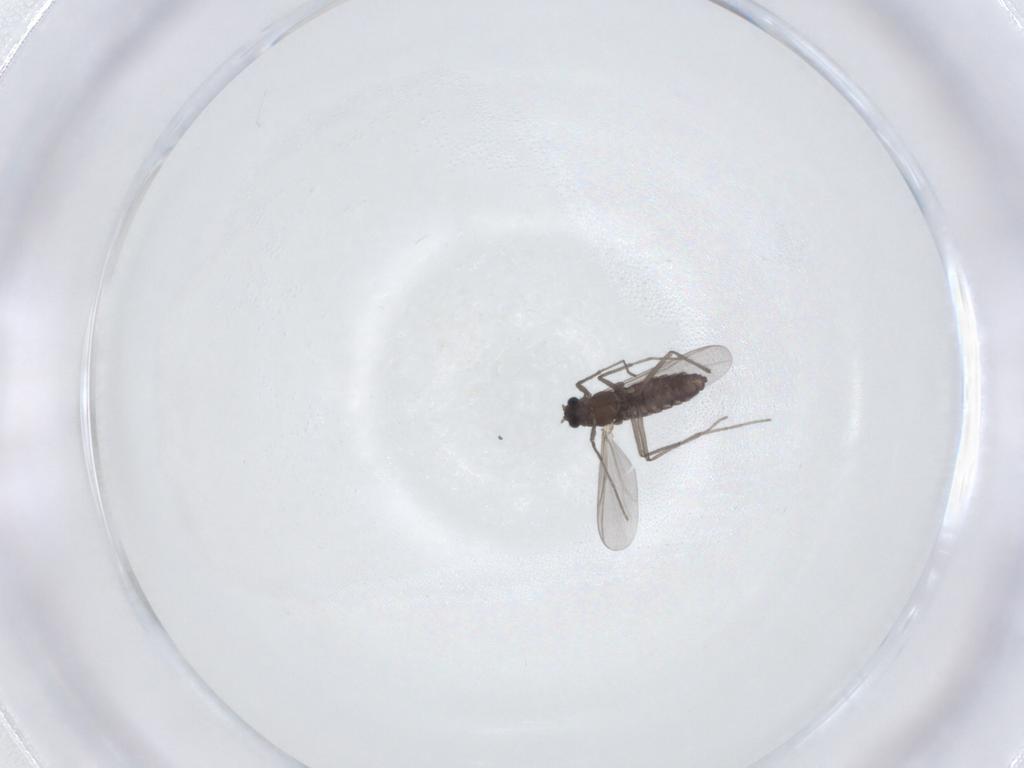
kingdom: Animalia
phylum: Arthropoda
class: Insecta
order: Diptera
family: Chironomidae
